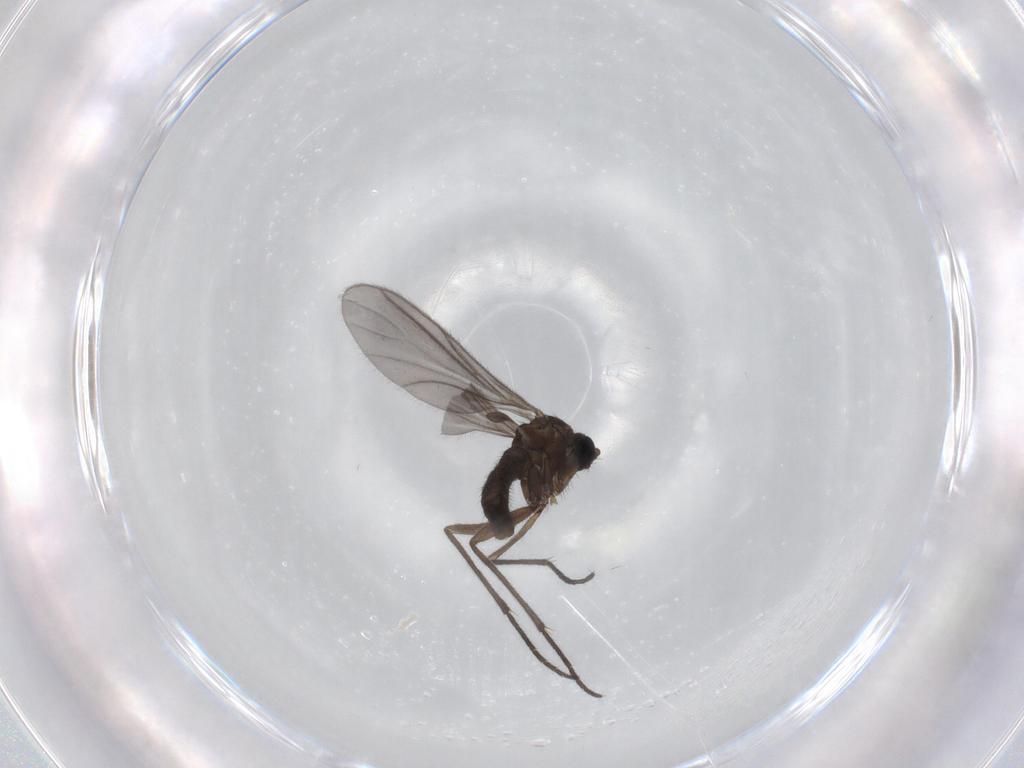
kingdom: Animalia
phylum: Arthropoda
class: Insecta
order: Diptera
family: Sciaridae
